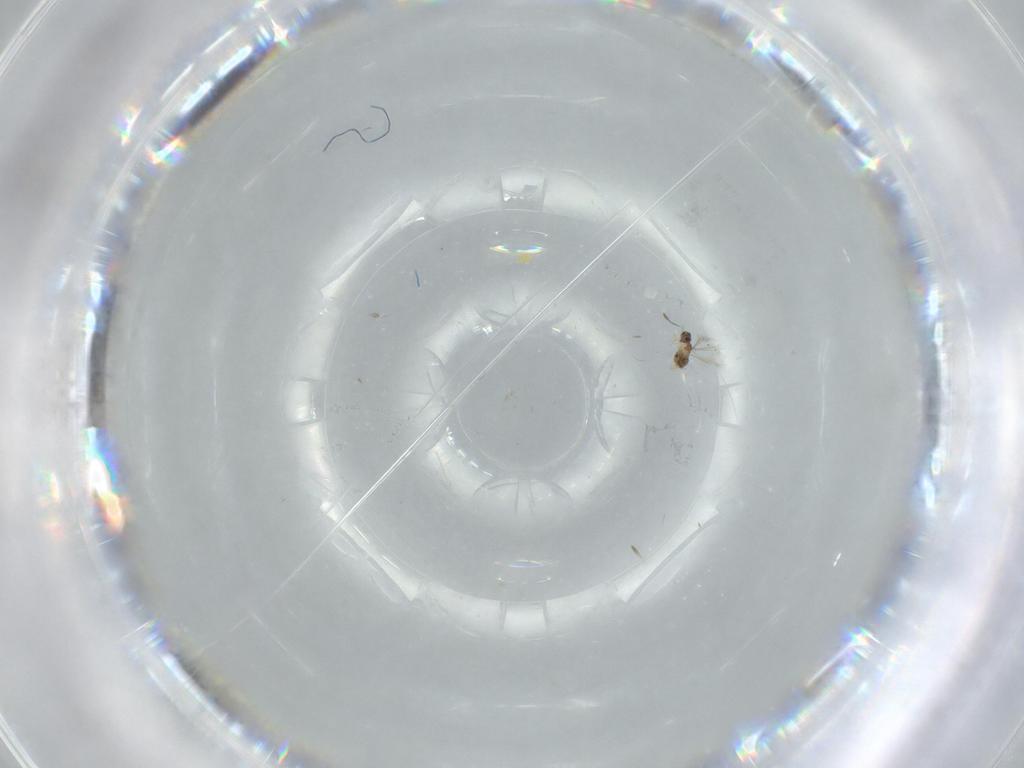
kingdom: Animalia
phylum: Arthropoda
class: Insecta
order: Hymenoptera
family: Mymaridae
